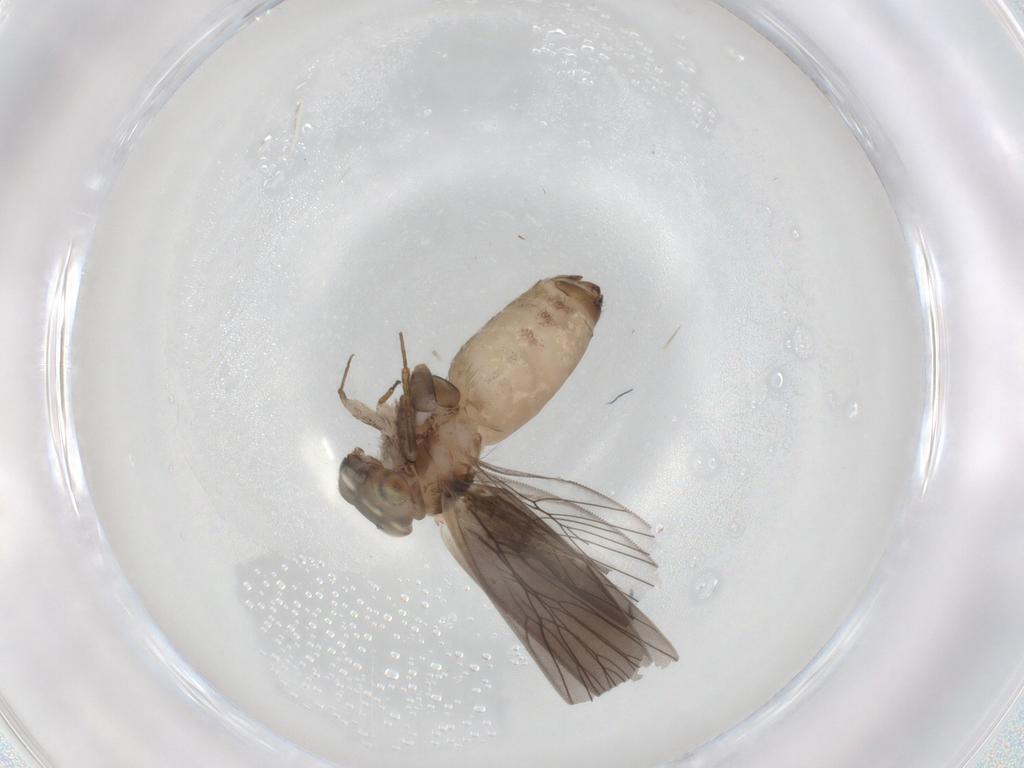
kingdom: Animalia
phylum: Arthropoda
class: Insecta
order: Psocodea
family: Lepidopsocidae
